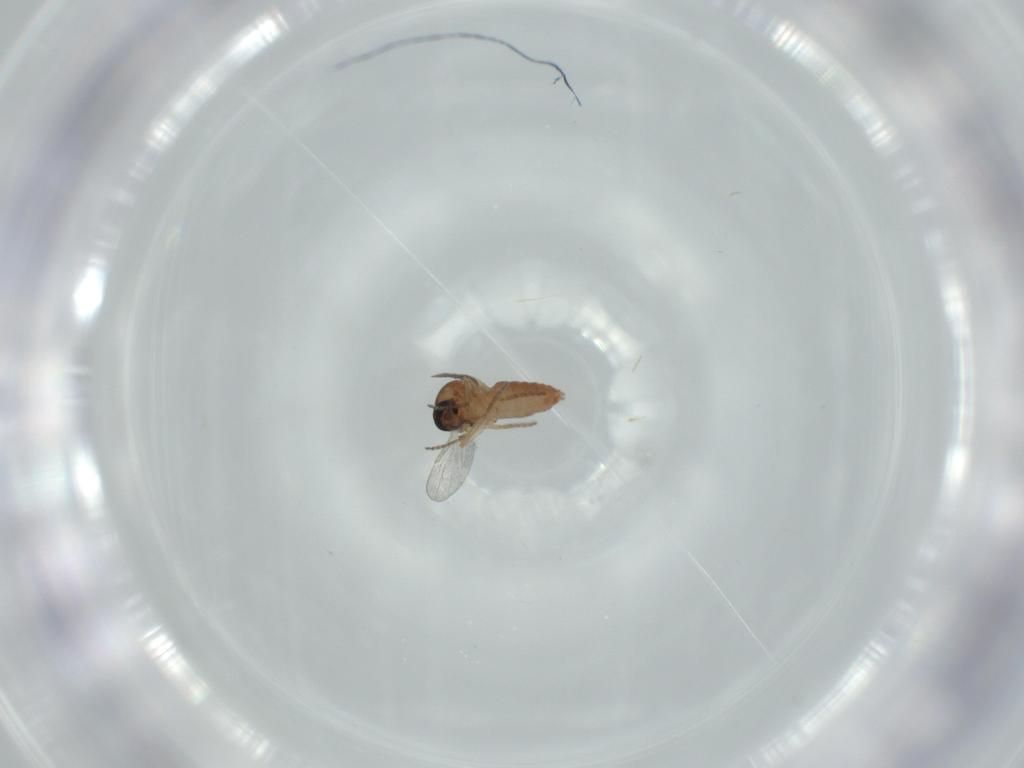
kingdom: Animalia
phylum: Arthropoda
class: Insecta
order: Diptera
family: Ceratopogonidae
